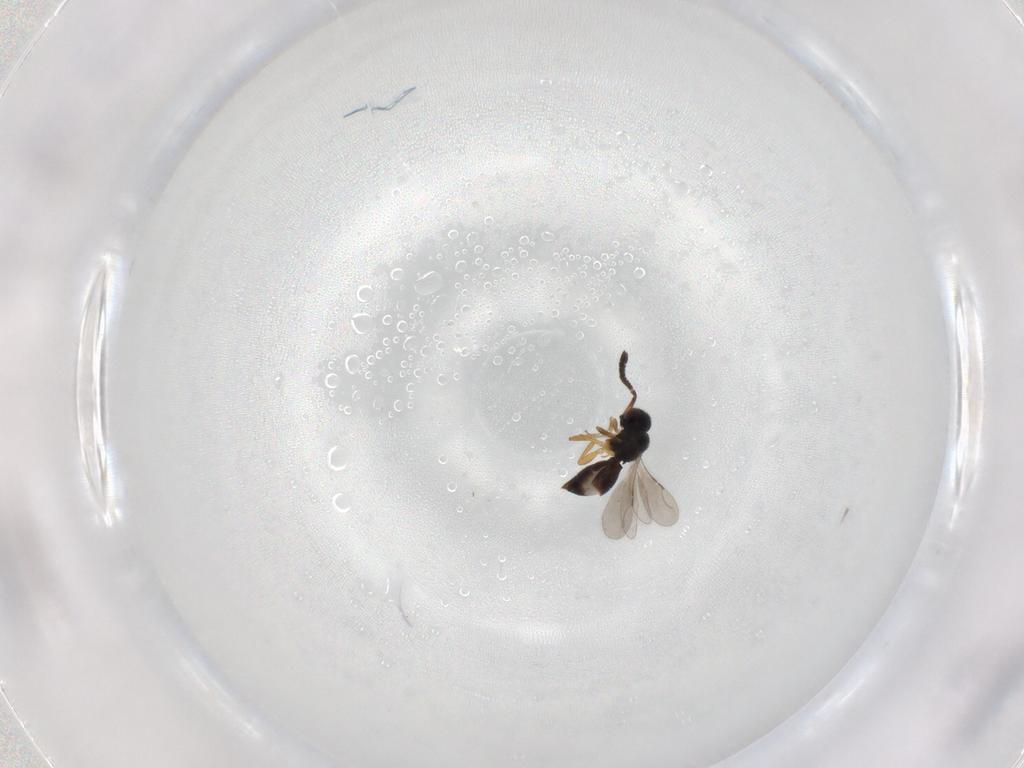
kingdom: Animalia
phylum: Arthropoda
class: Insecta
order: Hymenoptera
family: Ceraphronidae
